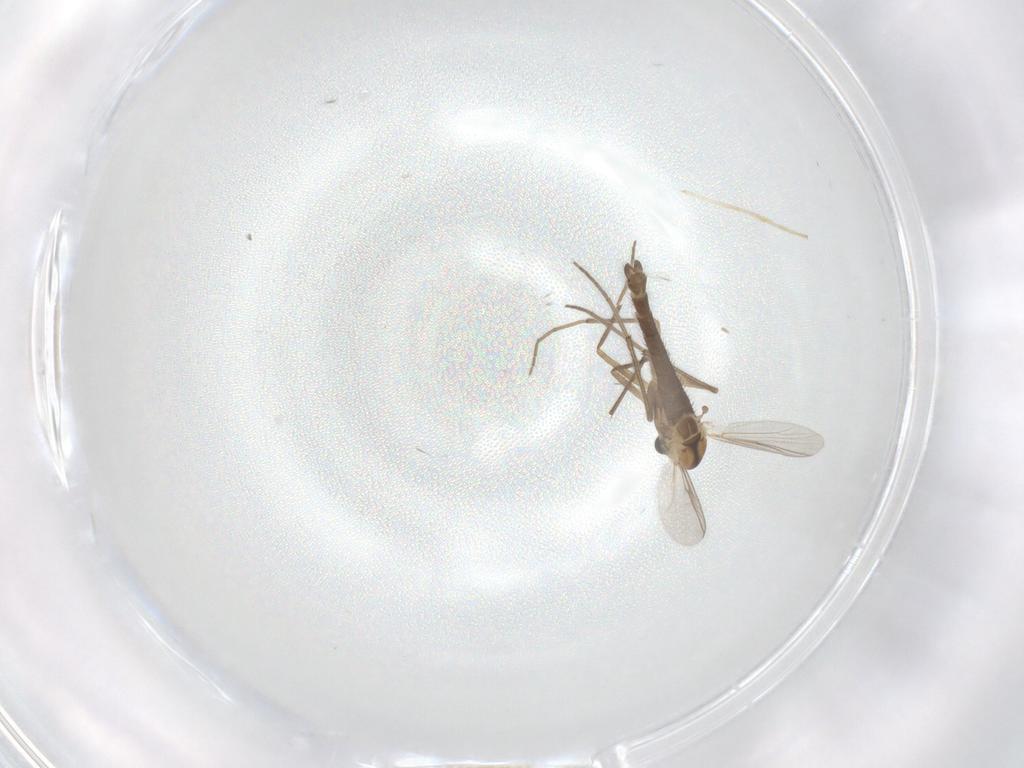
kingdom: Animalia
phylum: Arthropoda
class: Insecta
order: Diptera
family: Chironomidae
